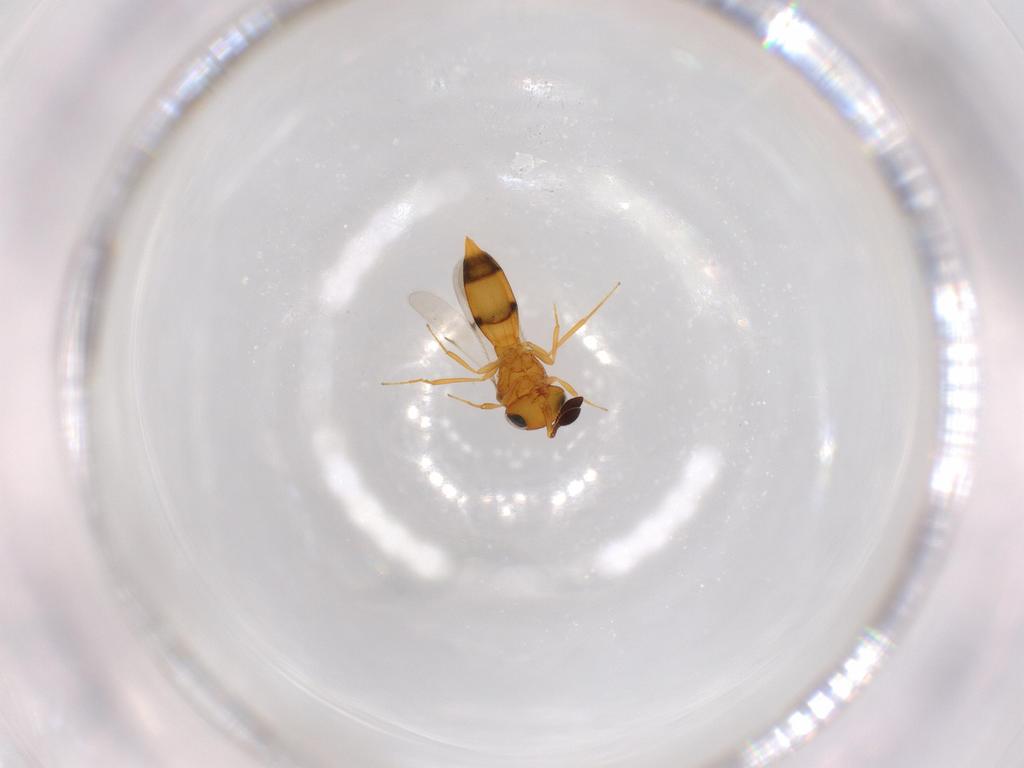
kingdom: Animalia
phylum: Arthropoda
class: Insecta
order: Hymenoptera
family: Scelionidae
